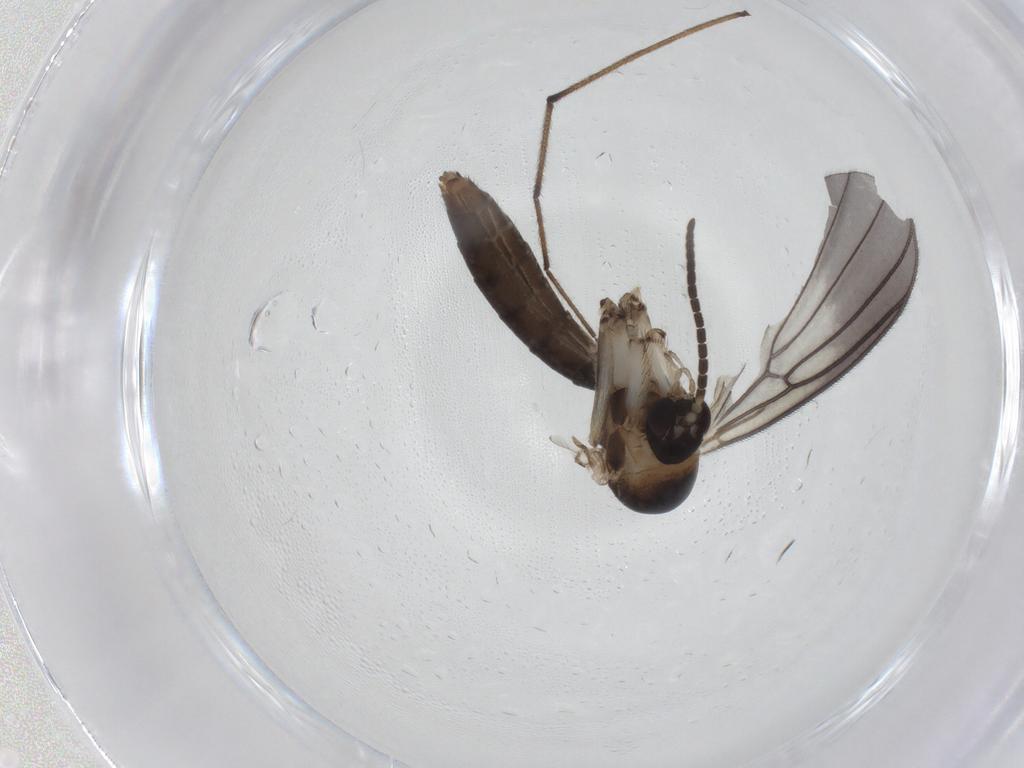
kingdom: Animalia
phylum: Arthropoda
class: Insecta
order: Diptera
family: Mycetophilidae
